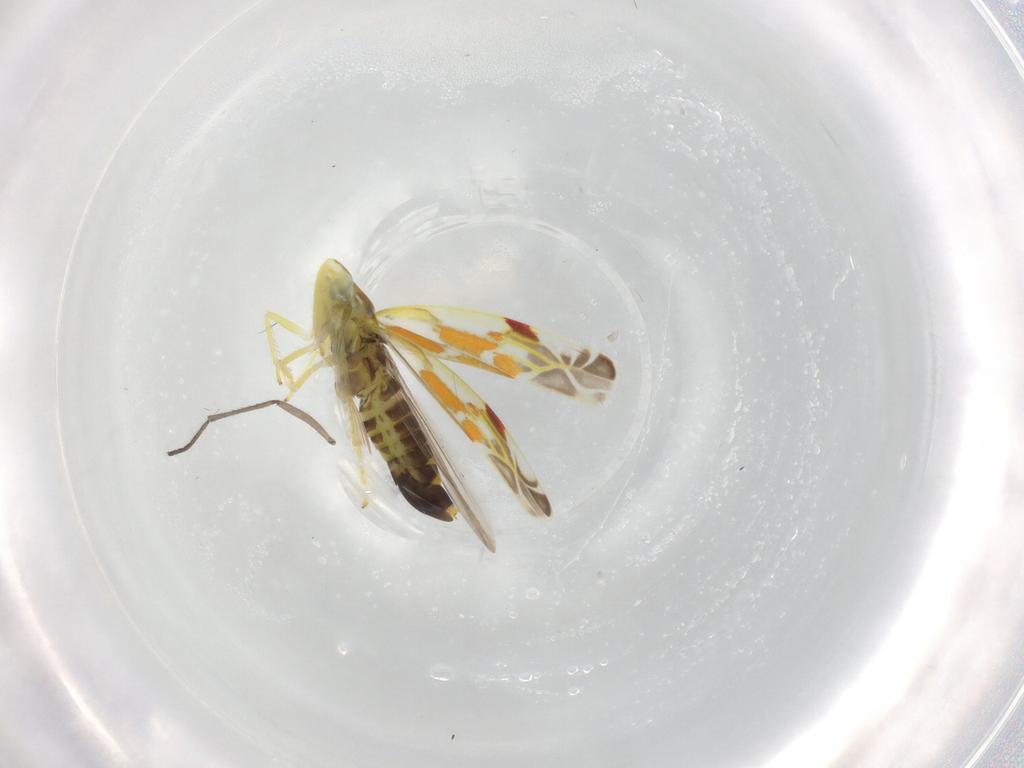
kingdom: Animalia
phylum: Arthropoda
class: Insecta
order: Hemiptera
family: Cicadellidae
